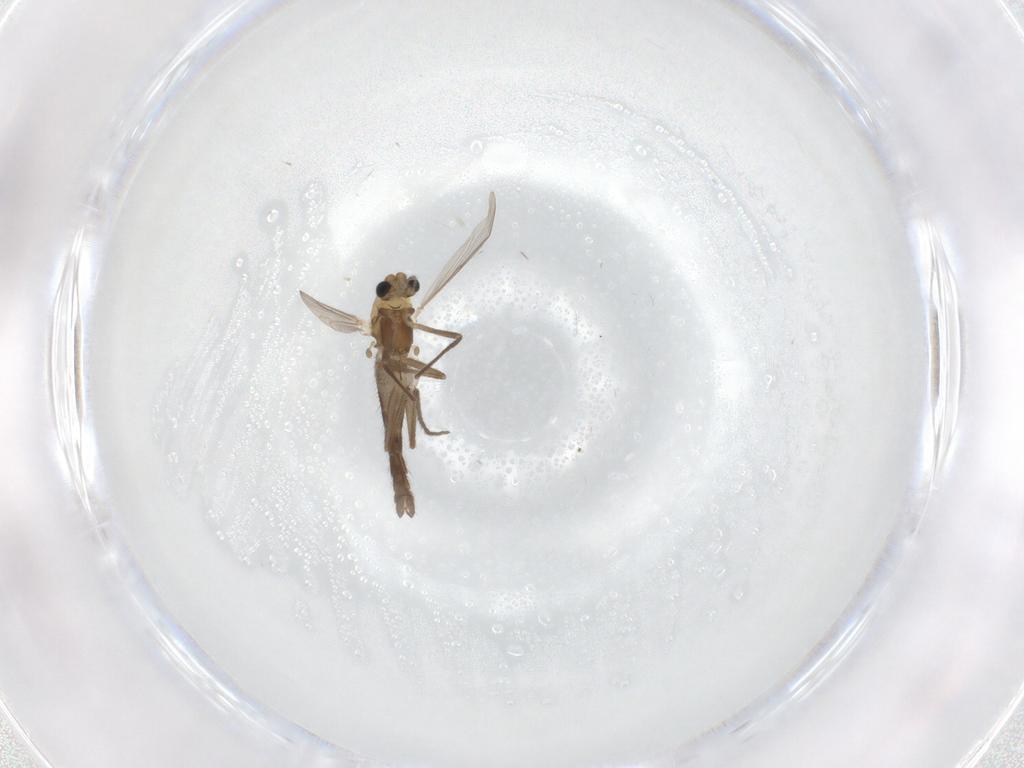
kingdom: Animalia
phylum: Arthropoda
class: Insecta
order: Diptera
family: Chironomidae
